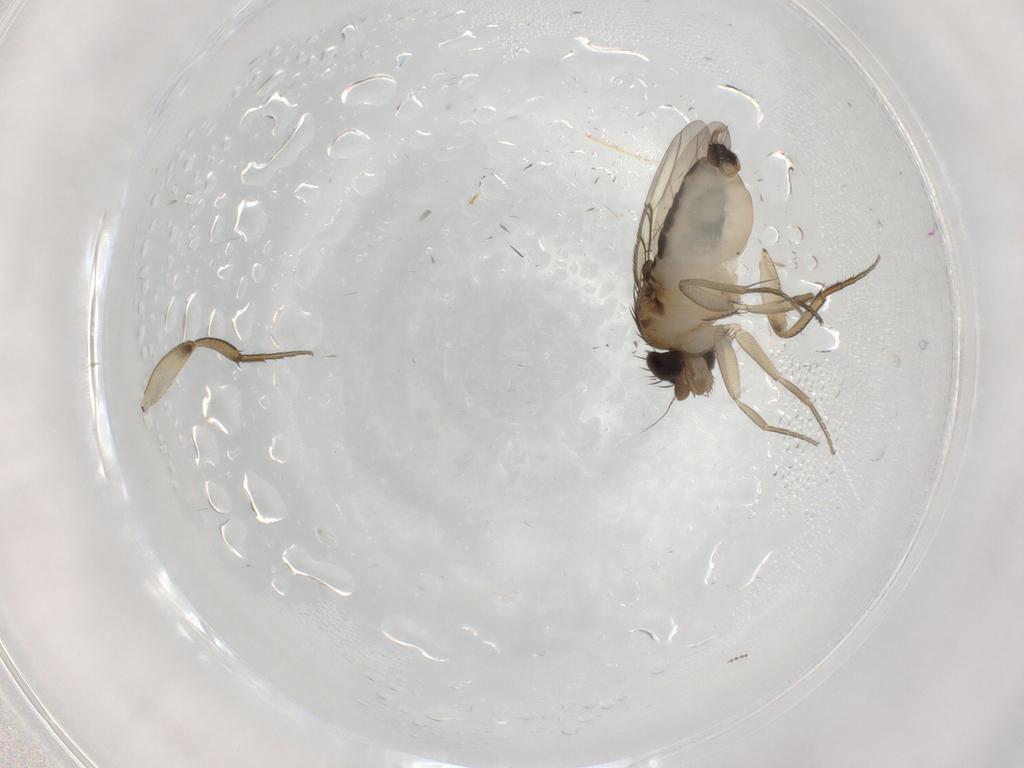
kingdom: Animalia
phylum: Arthropoda
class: Insecta
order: Diptera
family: Phoridae
